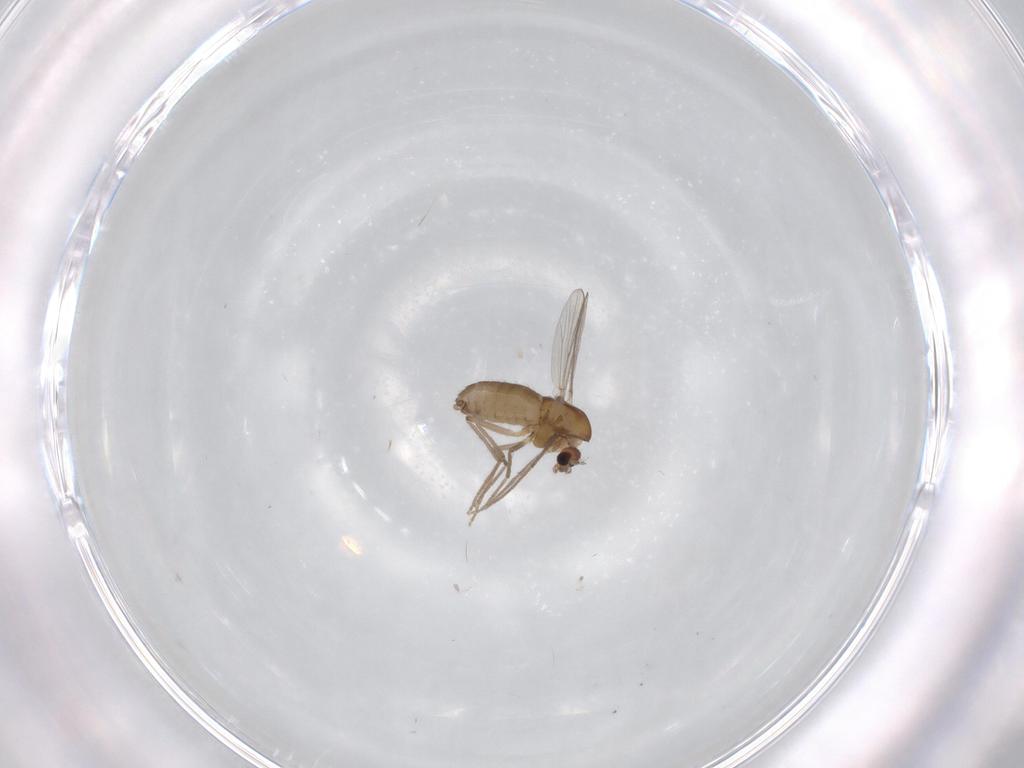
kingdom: Animalia
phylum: Arthropoda
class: Insecta
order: Diptera
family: Chironomidae
